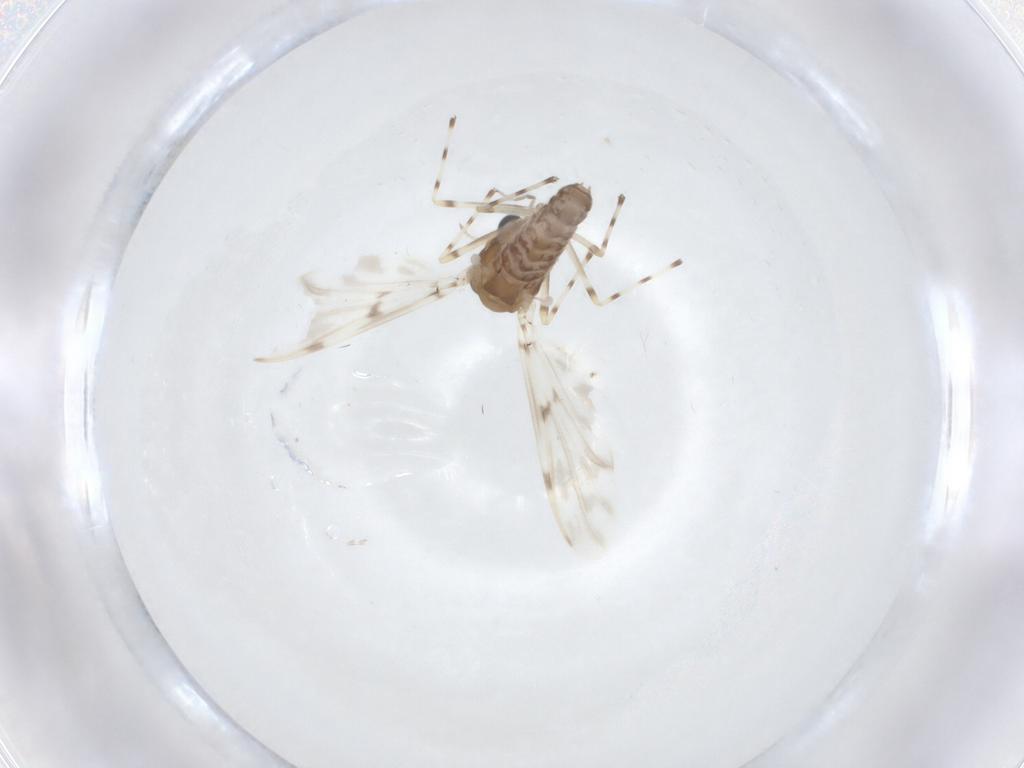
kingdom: Animalia
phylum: Arthropoda
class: Insecta
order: Diptera
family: Chironomidae
